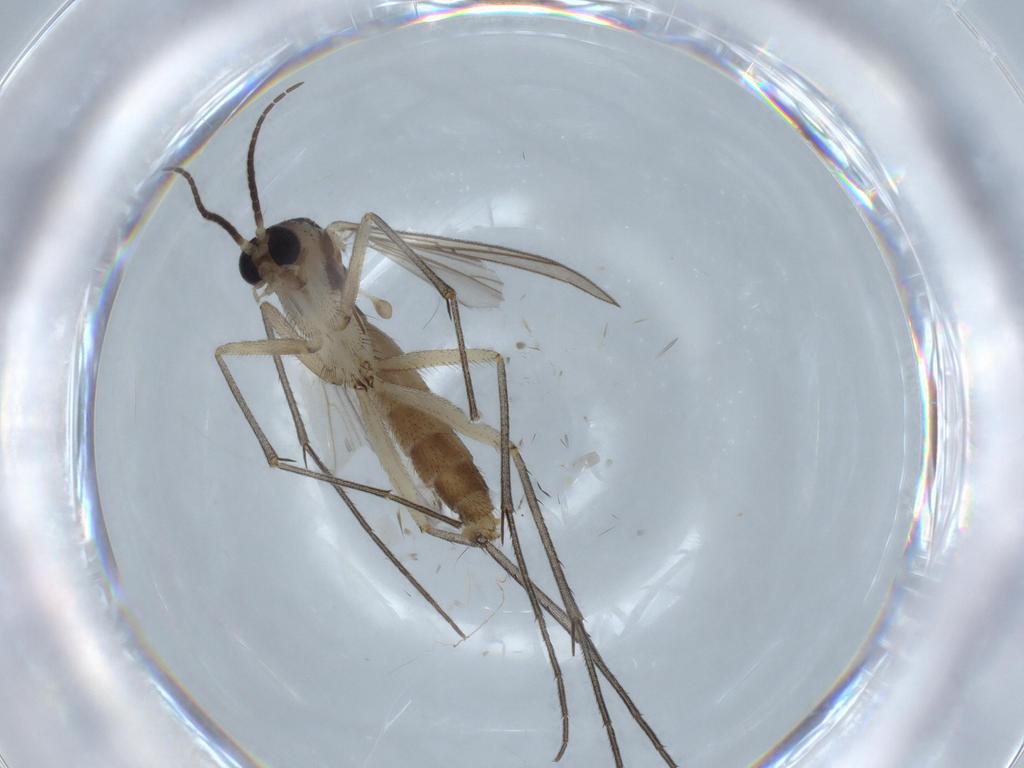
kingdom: Animalia
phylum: Arthropoda
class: Insecta
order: Diptera
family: Mycetophilidae
